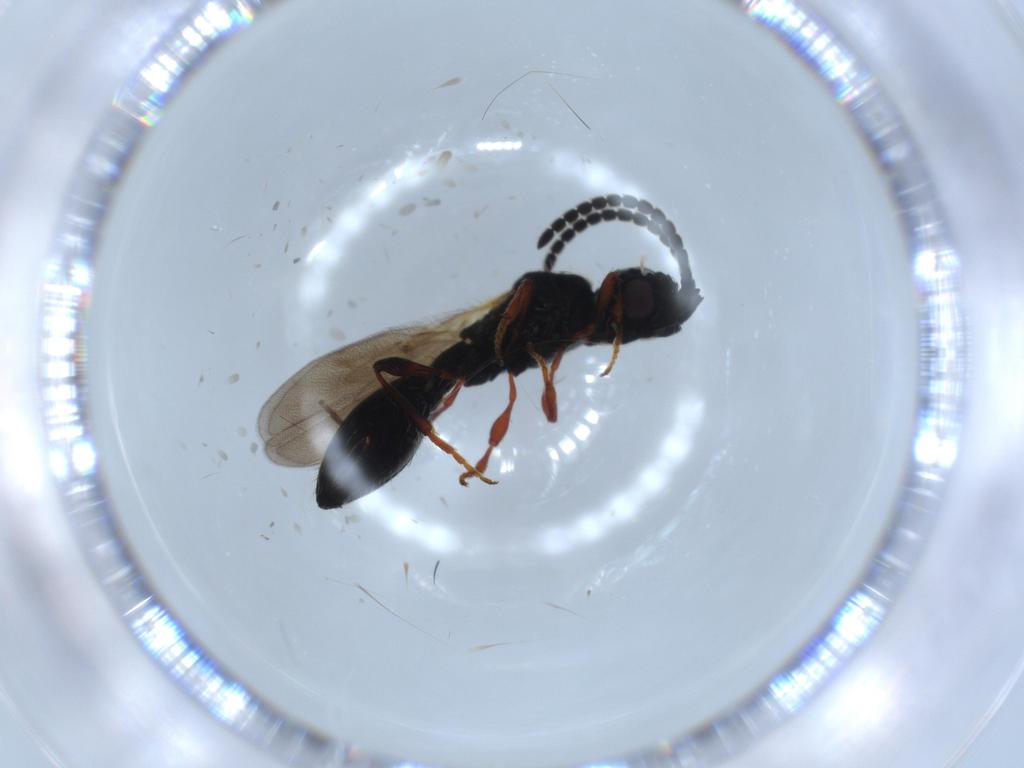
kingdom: Animalia
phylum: Arthropoda
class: Insecta
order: Hymenoptera
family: Diapriidae
